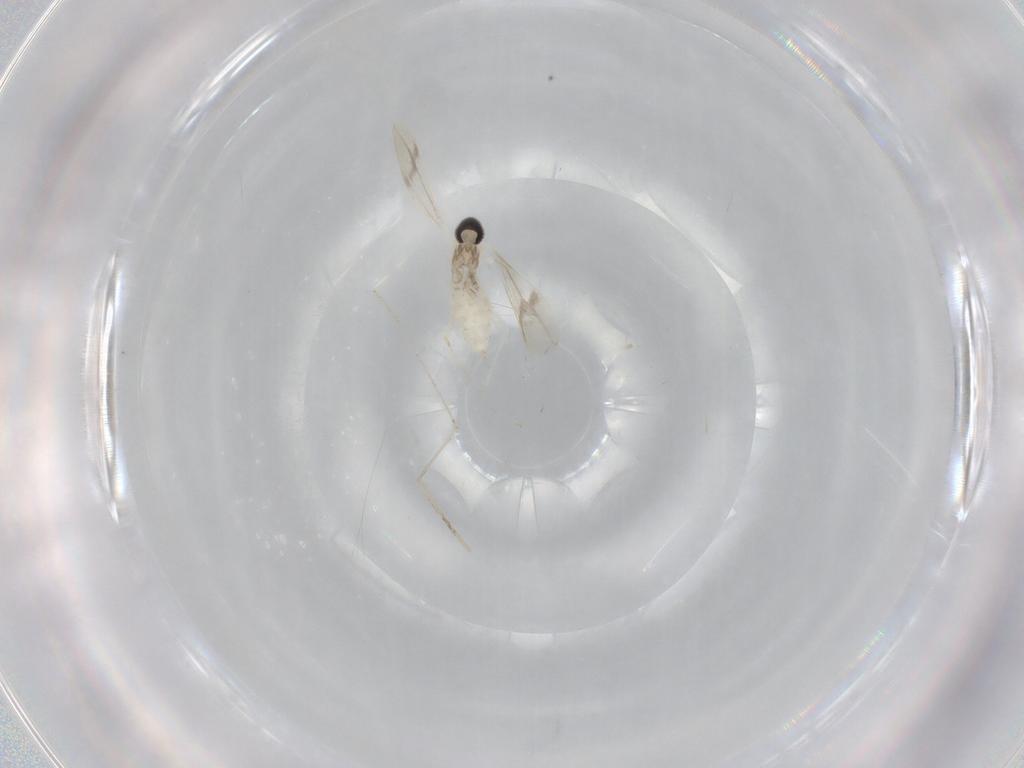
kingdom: Animalia
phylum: Arthropoda
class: Insecta
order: Diptera
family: Cecidomyiidae
